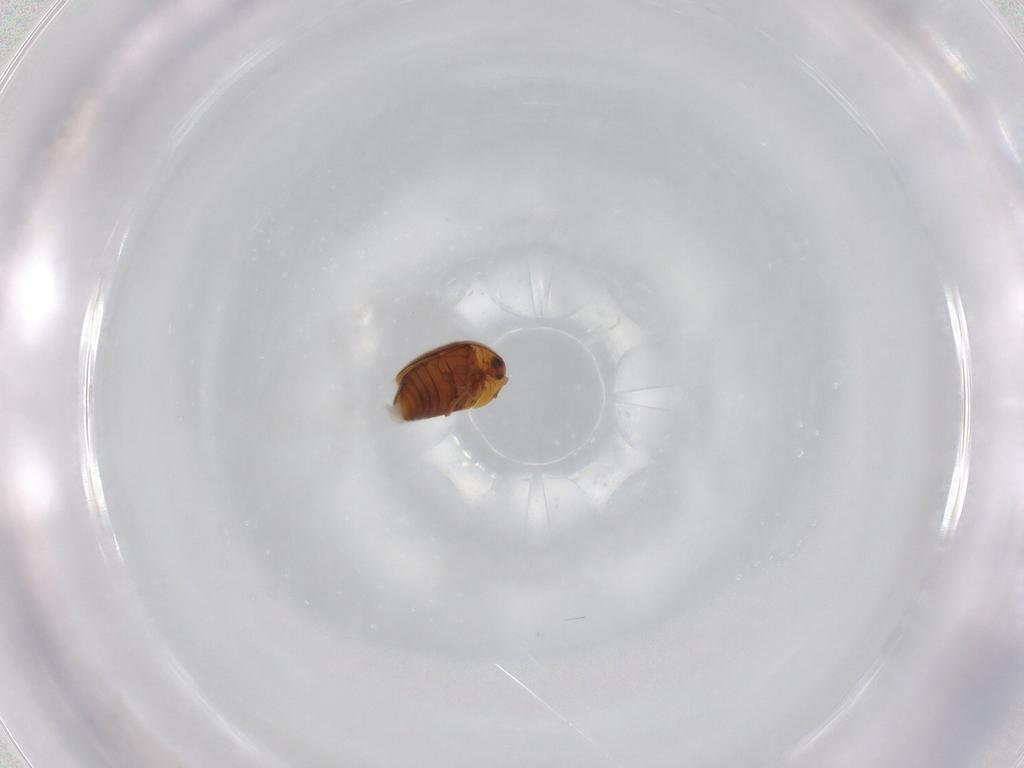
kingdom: Animalia
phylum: Arthropoda
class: Insecta
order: Coleoptera
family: Corylophidae
